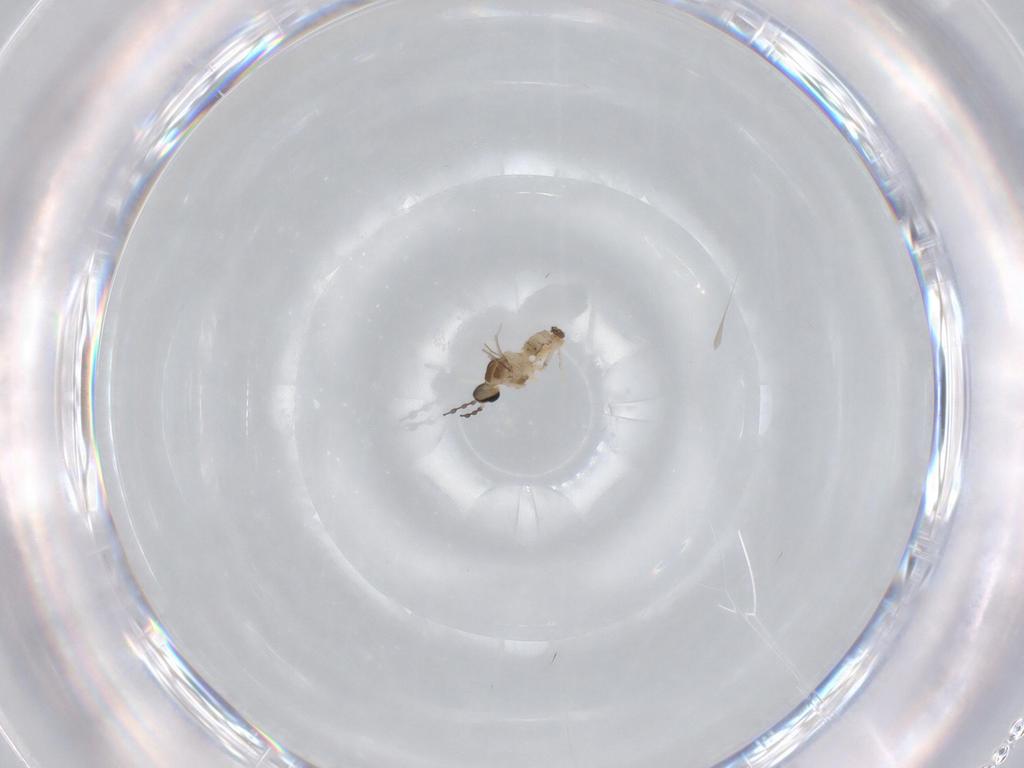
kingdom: Animalia
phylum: Arthropoda
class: Insecta
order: Diptera
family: Cecidomyiidae
